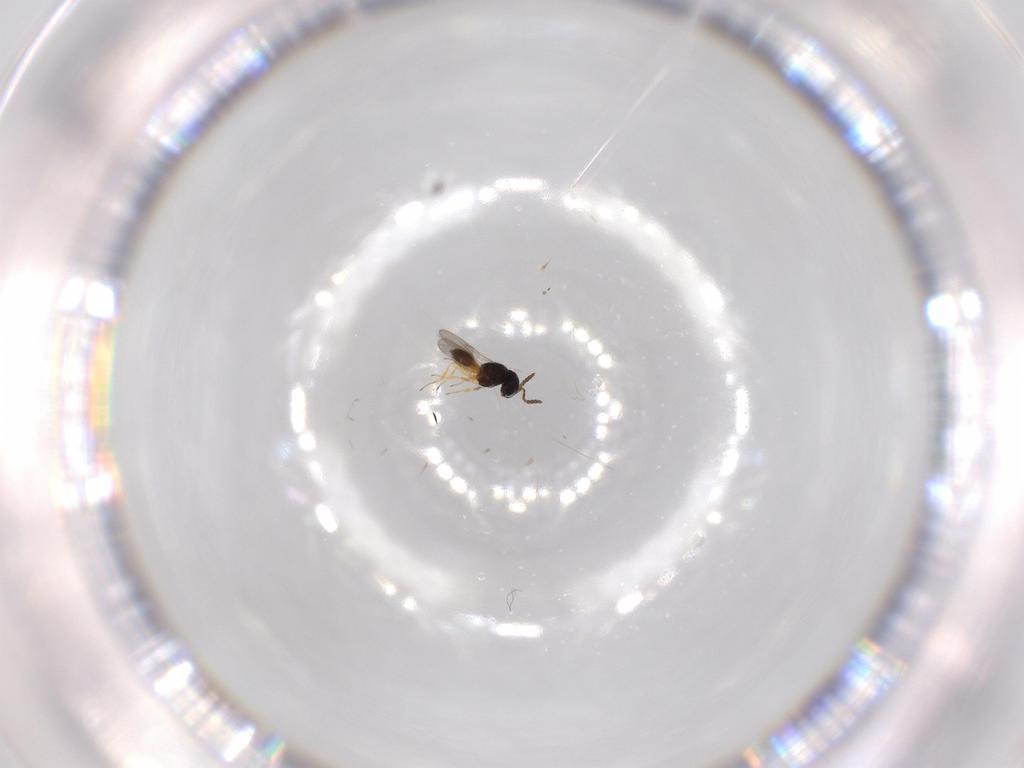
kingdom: Animalia
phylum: Arthropoda
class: Insecta
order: Hymenoptera
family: Scelionidae
